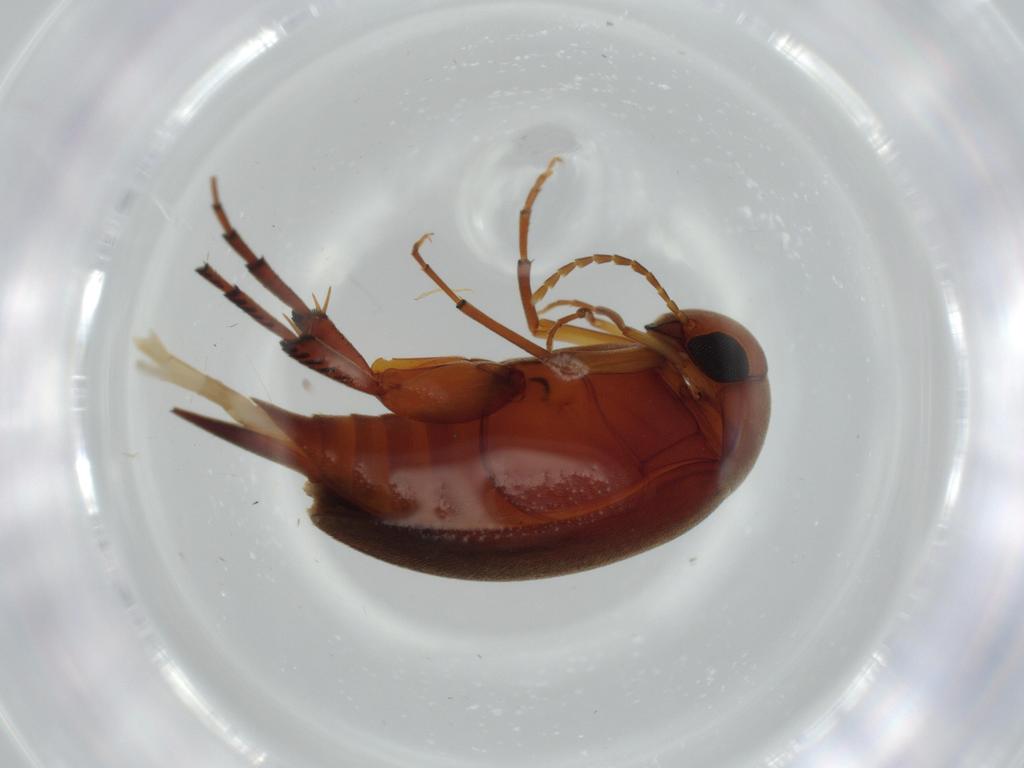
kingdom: Animalia
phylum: Arthropoda
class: Insecta
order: Coleoptera
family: Mordellidae
